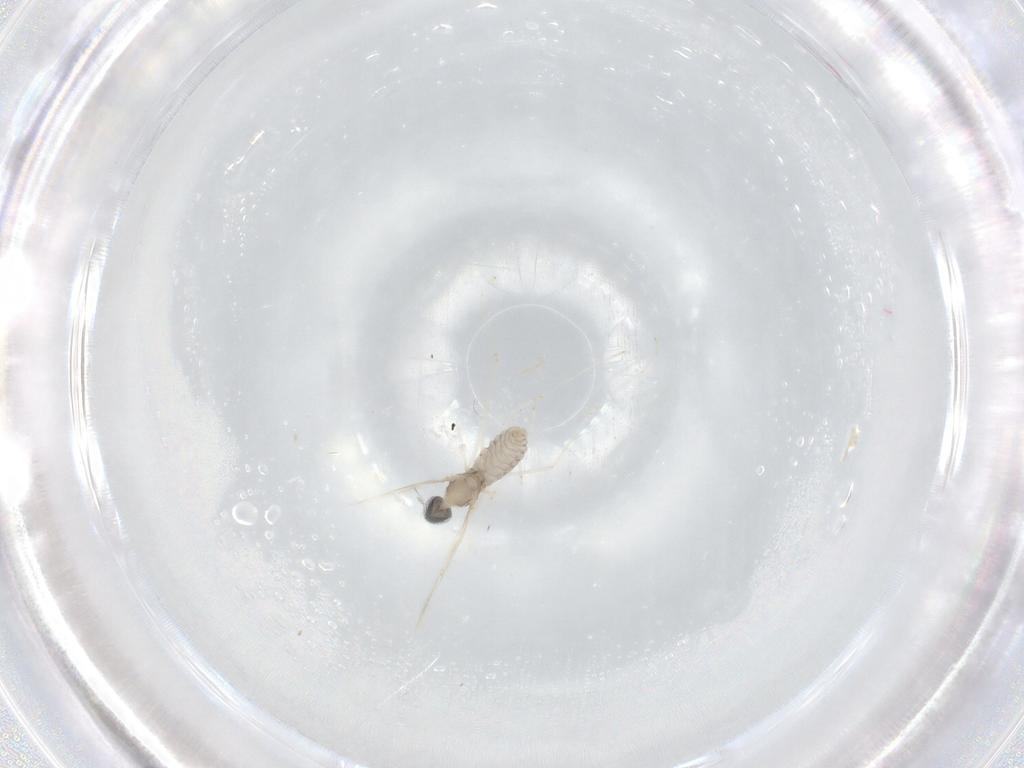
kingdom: Animalia
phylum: Arthropoda
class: Insecta
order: Diptera
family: Cecidomyiidae
